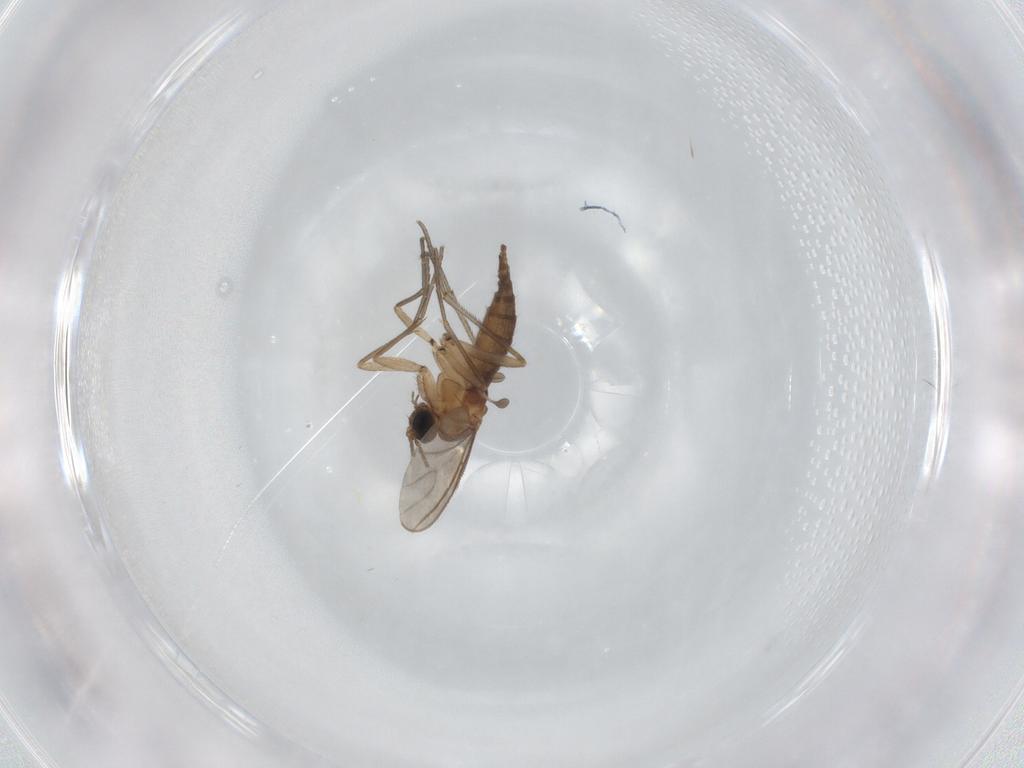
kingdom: Animalia
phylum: Arthropoda
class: Insecta
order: Diptera
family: Sciaridae
